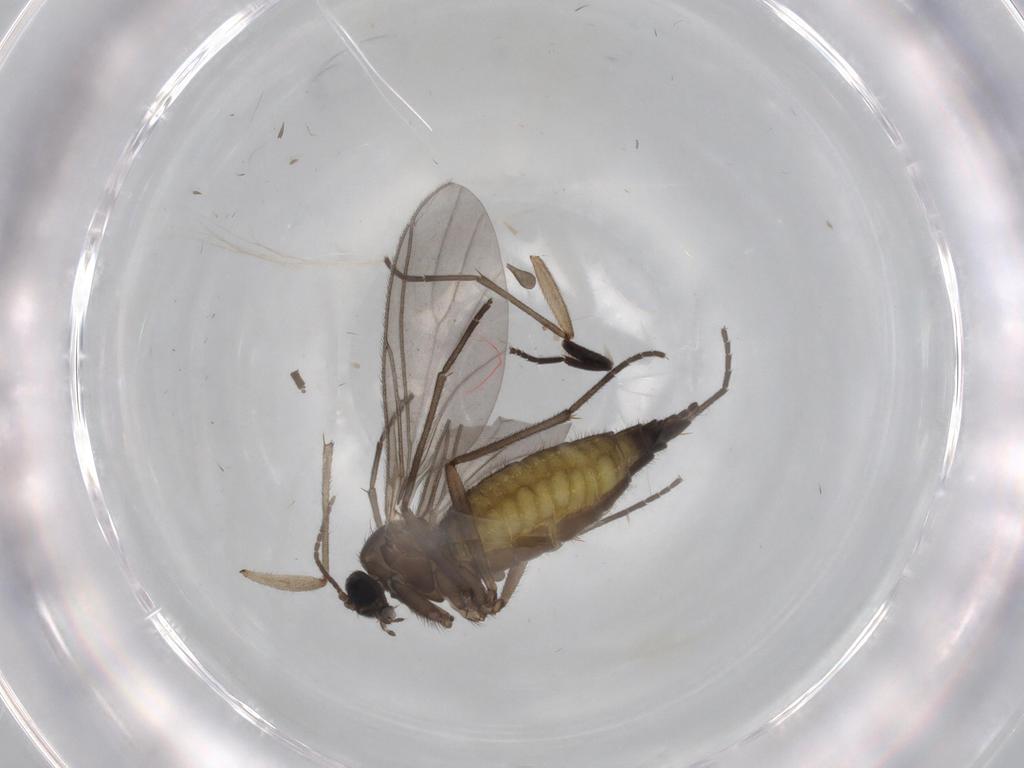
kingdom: Animalia
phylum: Arthropoda
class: Insecta
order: Diptera
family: Sciaridae
